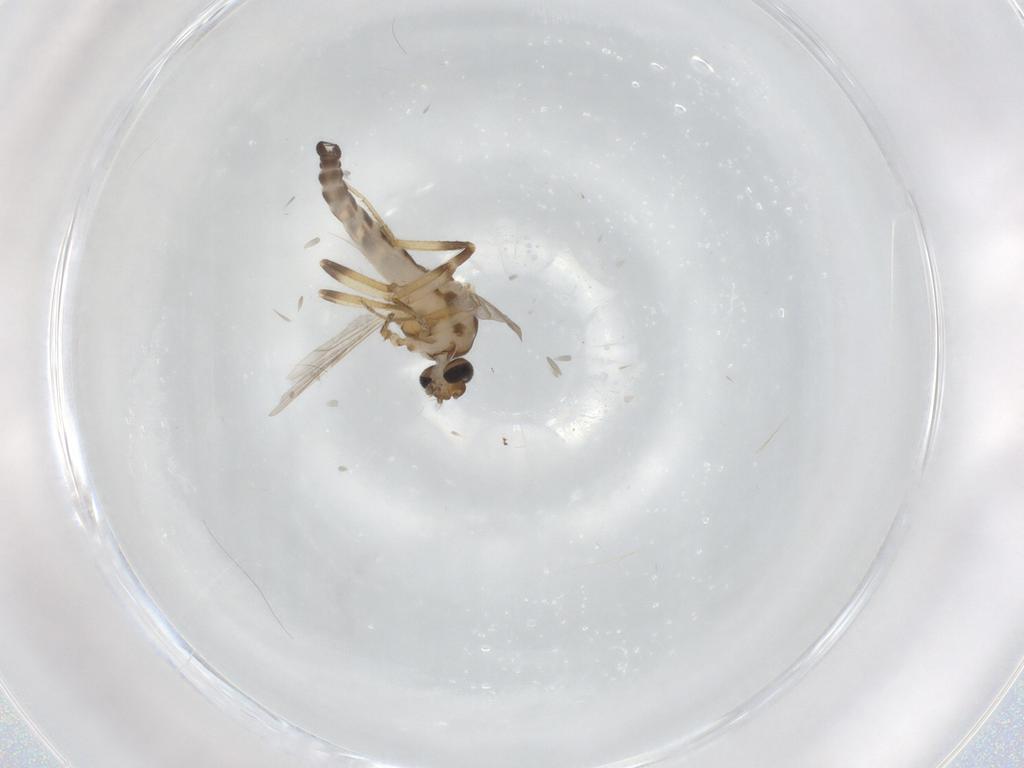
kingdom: Animalia
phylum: Arthropoda
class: Insecta
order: Diptera
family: Ceratopogonidae
